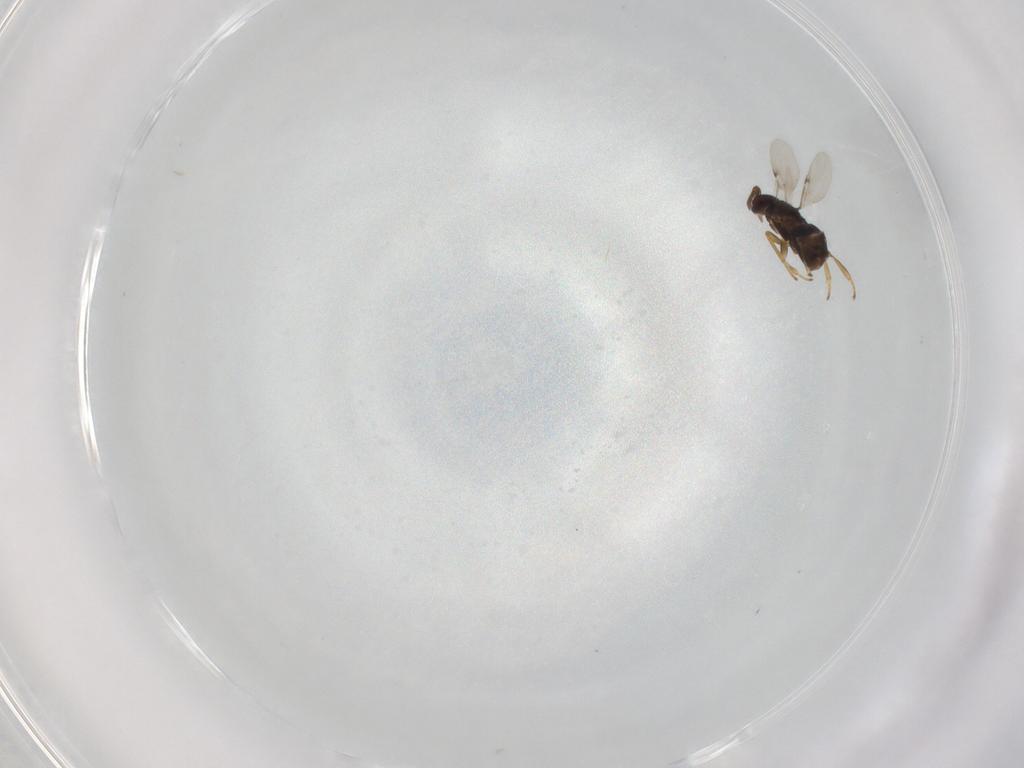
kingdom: Animalia
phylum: Arthropoda
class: Insecta
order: Hymenoptera
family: Encyrtidae
